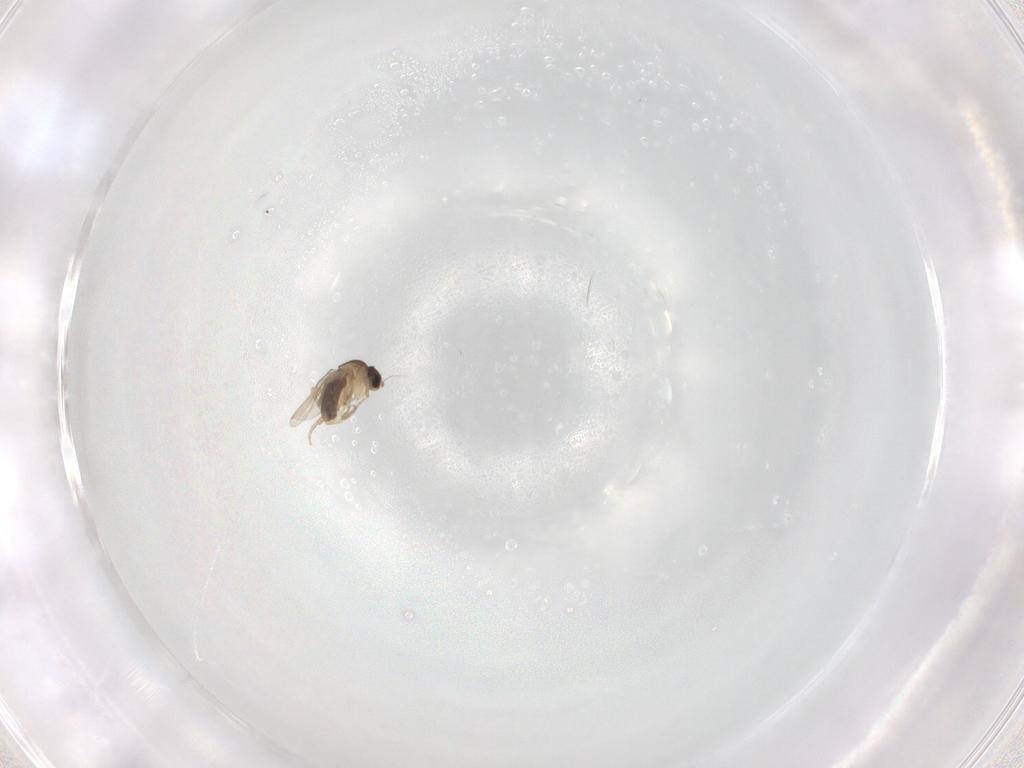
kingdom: Animalia
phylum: Arthropoda
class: Insecta
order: Diptera
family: Phoridae
